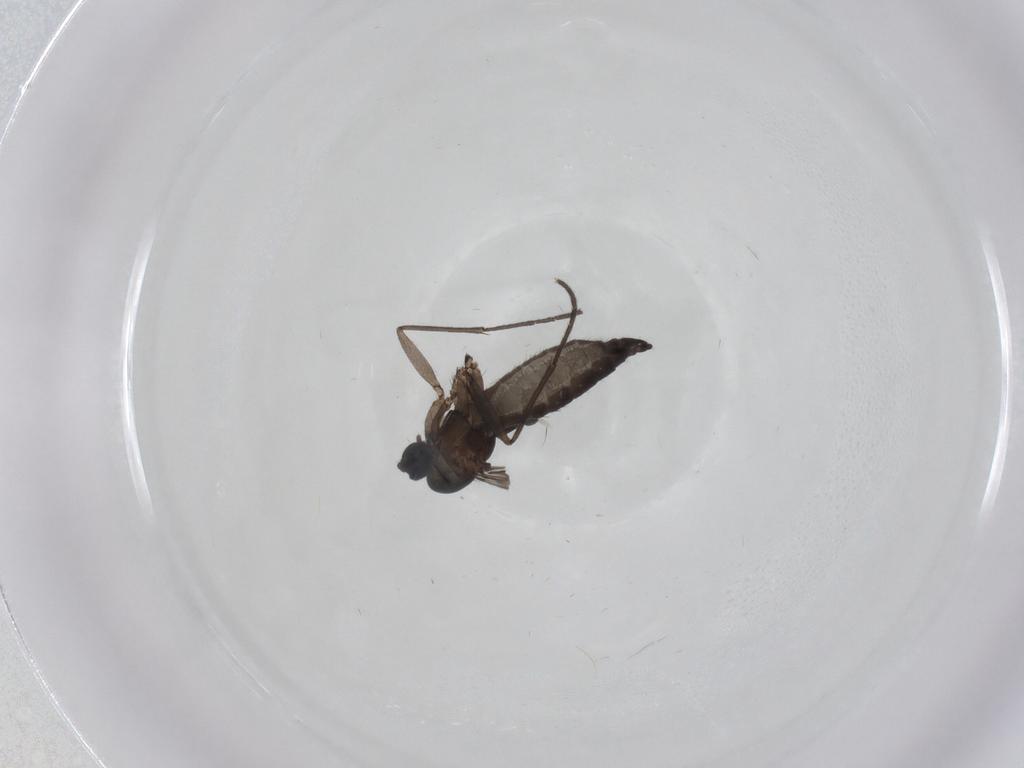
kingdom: Animalia
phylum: Arthropoda
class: Insecta
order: Diptera
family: Sciaridae
